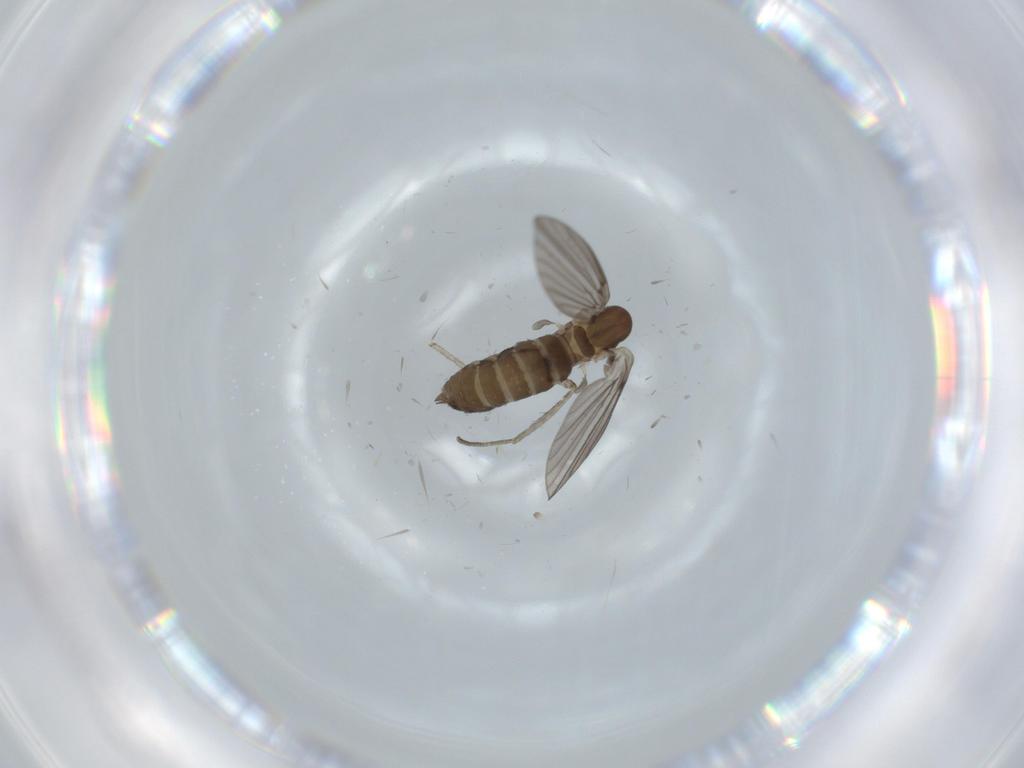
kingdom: Animalia
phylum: Arthropoda
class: Insecta
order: Diptera
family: Psychodidae
